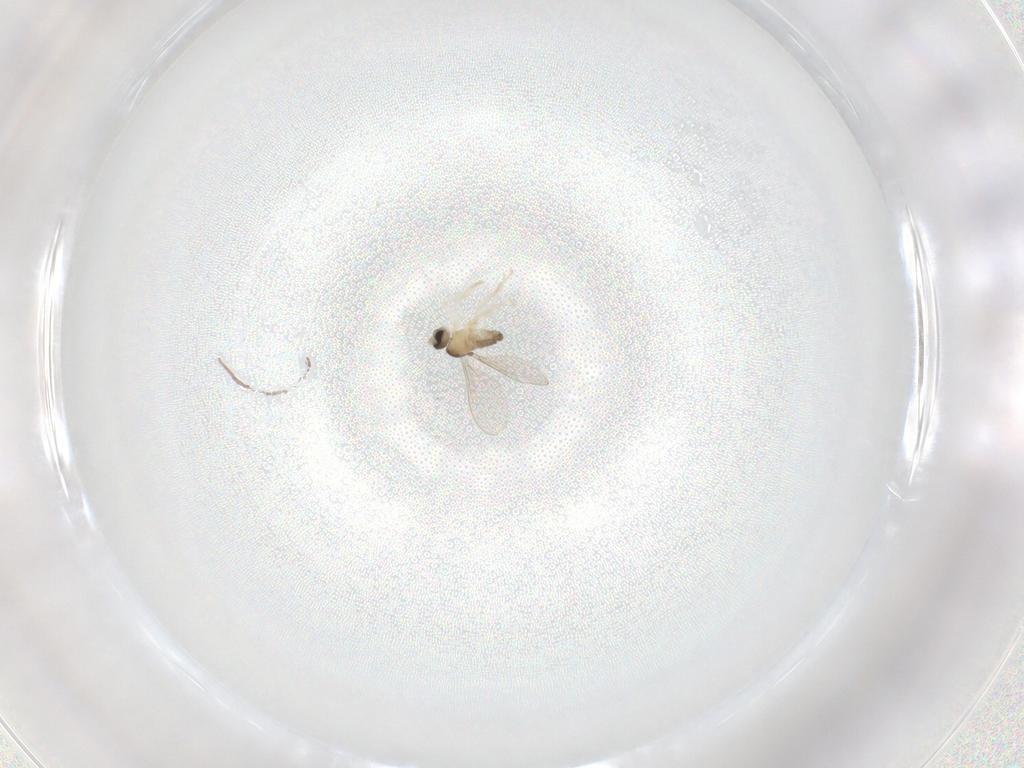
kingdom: Animalia
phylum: Arthropoda
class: Insecta
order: Diptera
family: Cecidomyiidae
